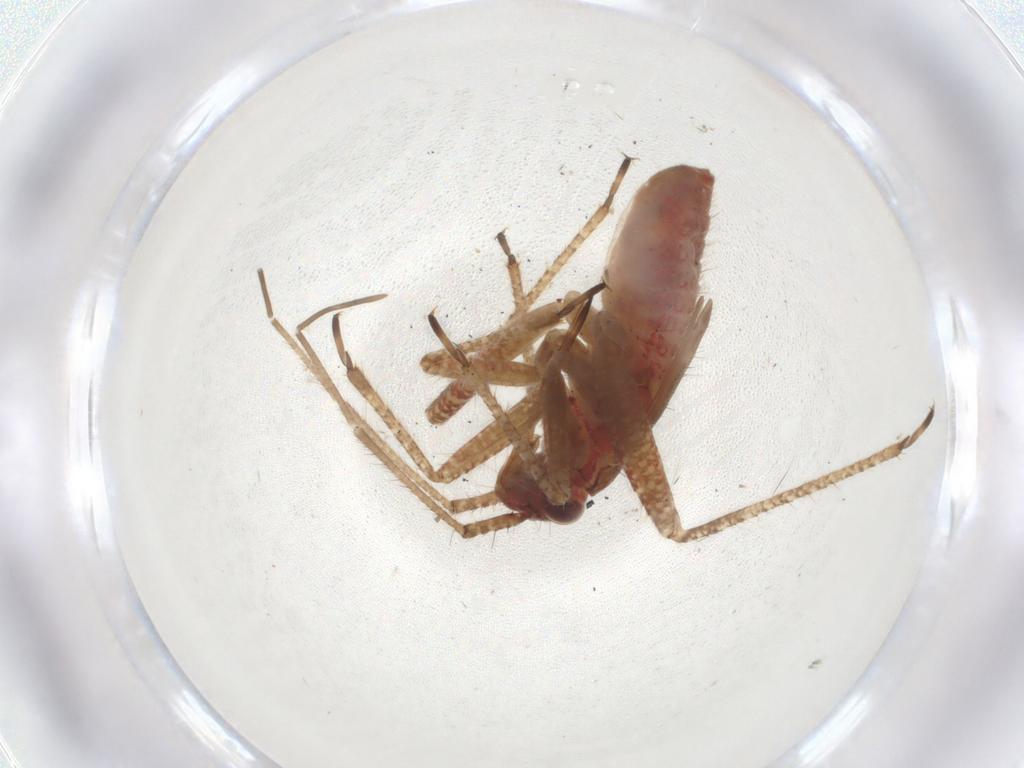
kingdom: Animalia
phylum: Arthropoda
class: Insecta
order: Hemiptera
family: Miridae
